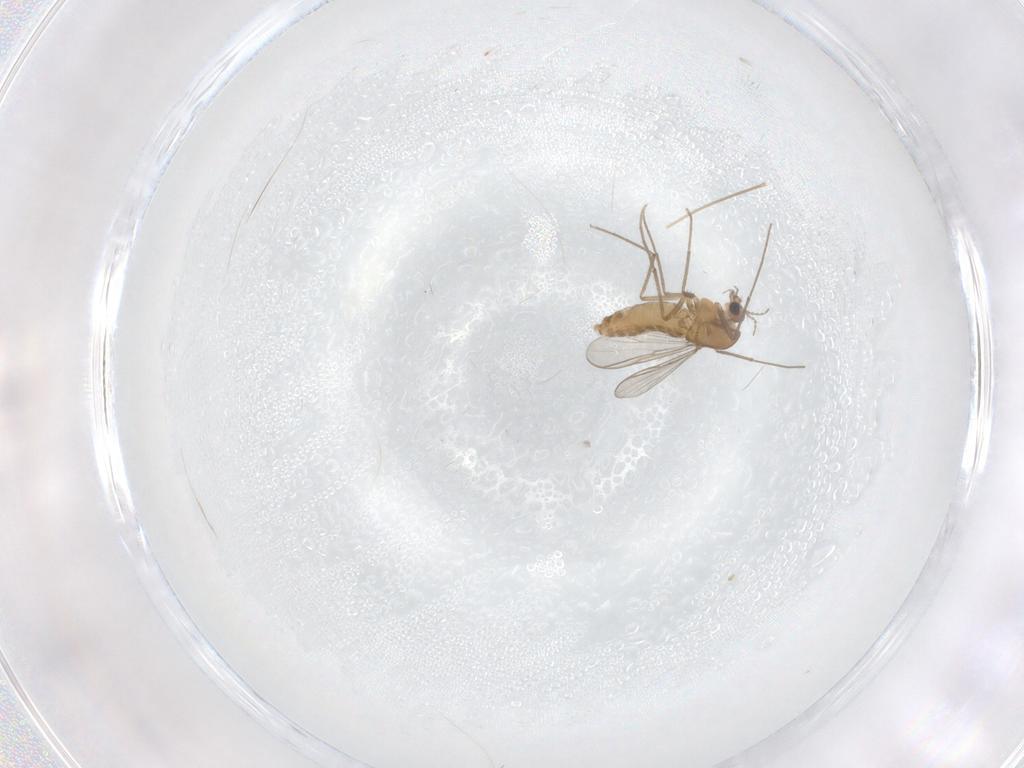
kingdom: Animalia
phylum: Arthropoda
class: Insecta
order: Diptera
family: Chironomidae
